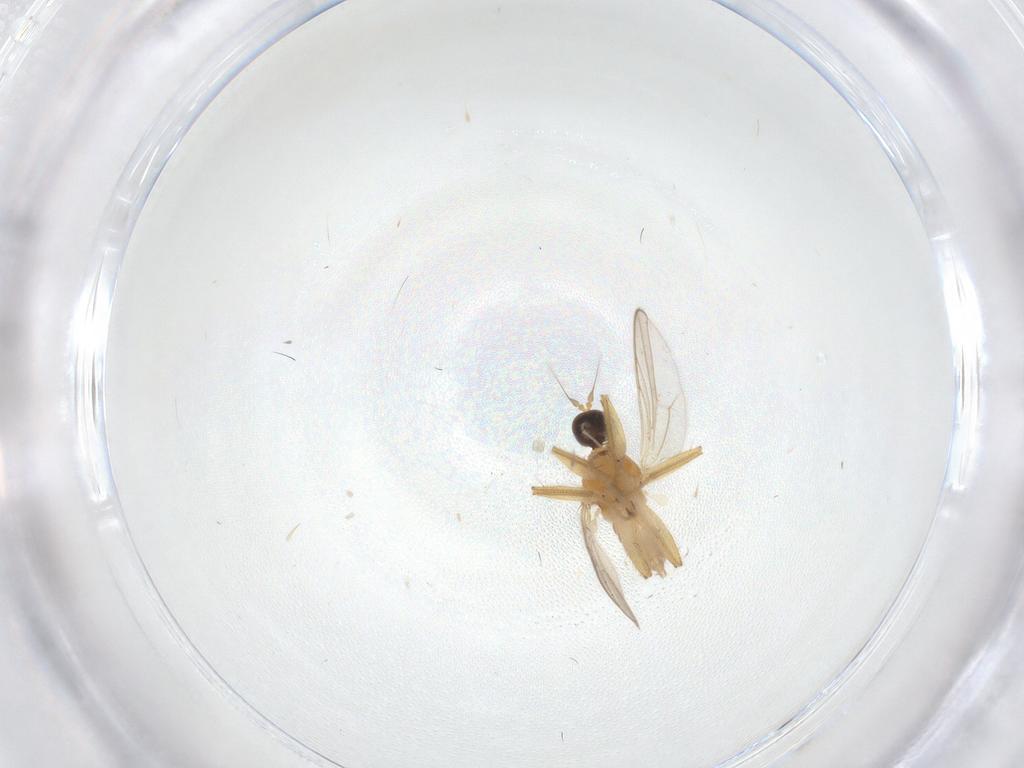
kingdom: Animalia
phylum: Arthropoda
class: Insecta
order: Diptera
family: Hybotidae
